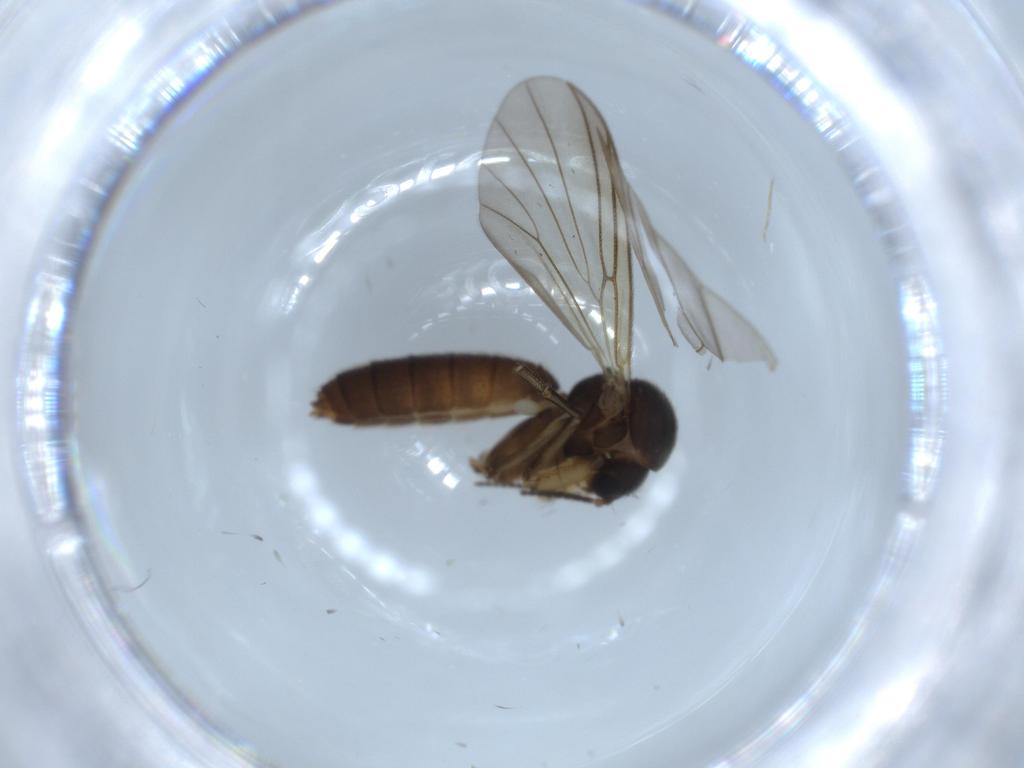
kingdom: Animalia
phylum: Arthropoda
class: Insecta
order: Diptera
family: Mycetophilidae
